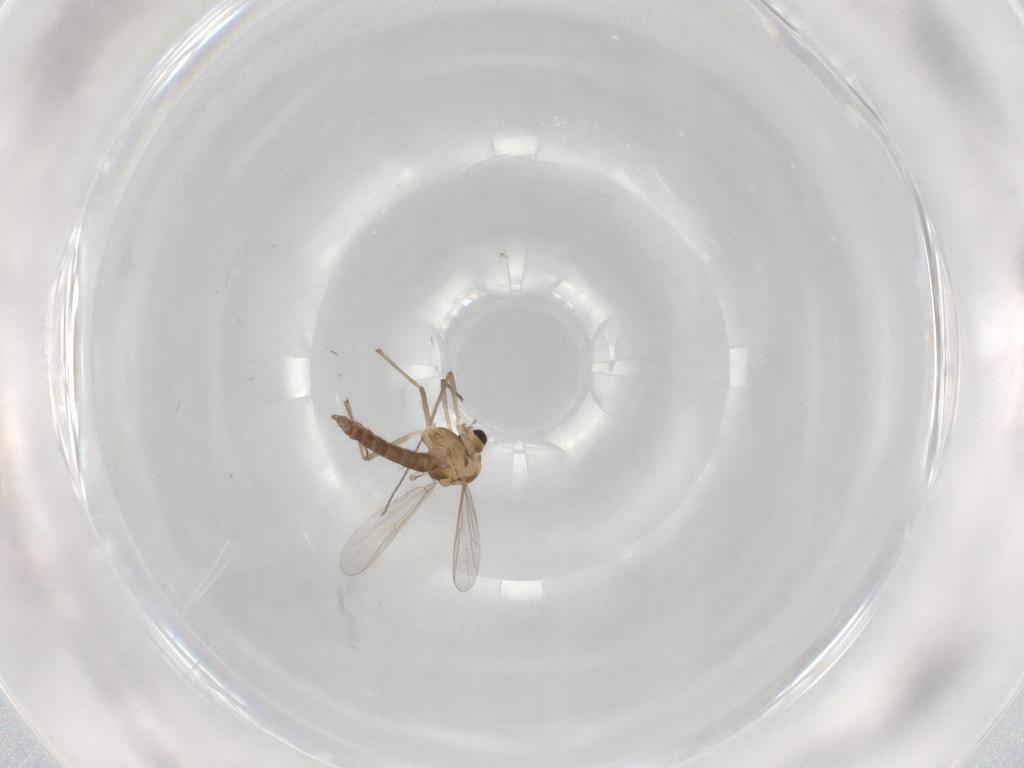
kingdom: Animalia
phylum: Arthropoda
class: Insecta
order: Diptera
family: Chironomidae
